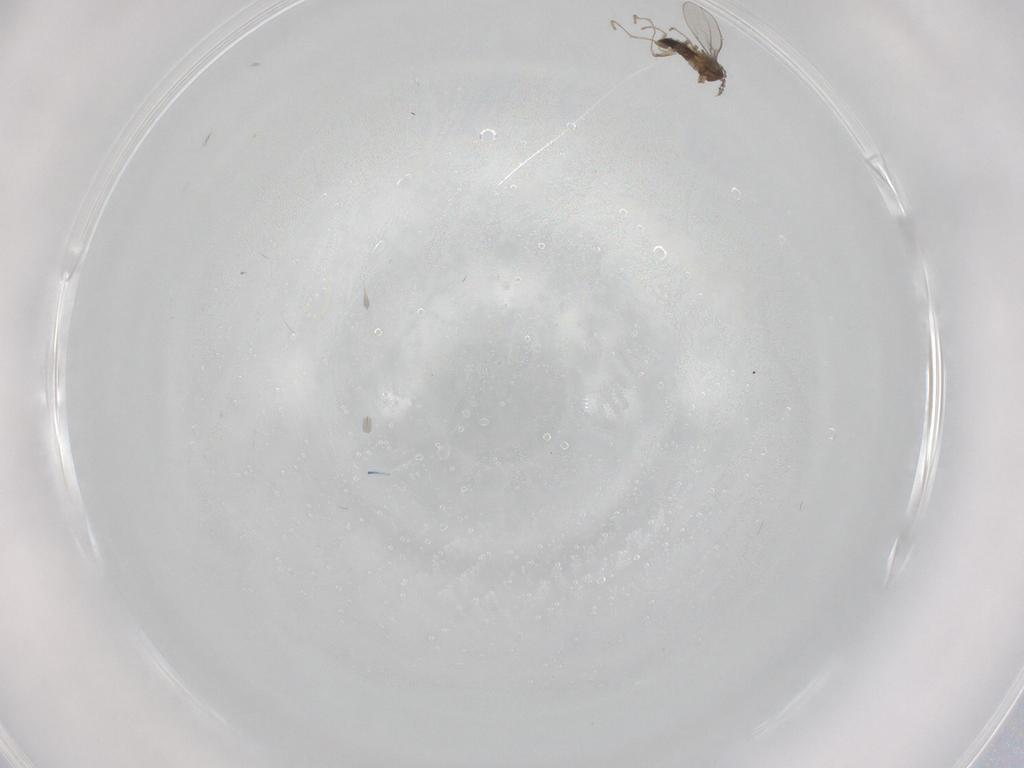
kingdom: Animalia
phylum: Arthropoda
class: Insecta
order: Diptera
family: Cecidomyiidae
